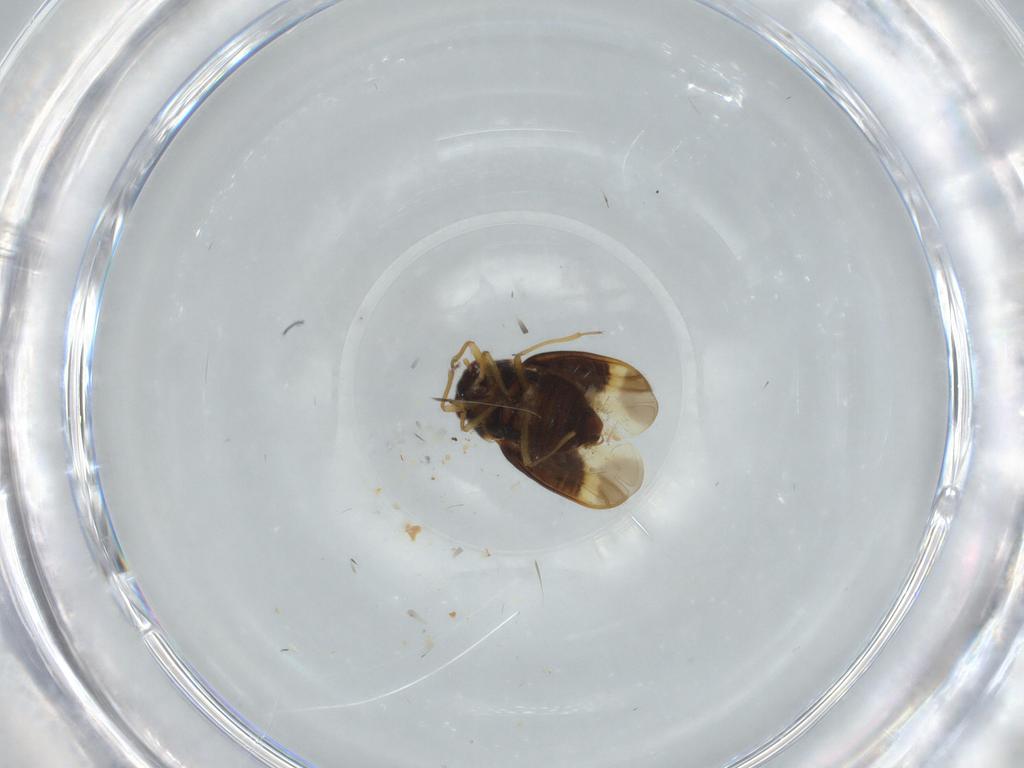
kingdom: Animalia
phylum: Arthropoda
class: Insecta
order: Hemiptera
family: Schizopteridae
